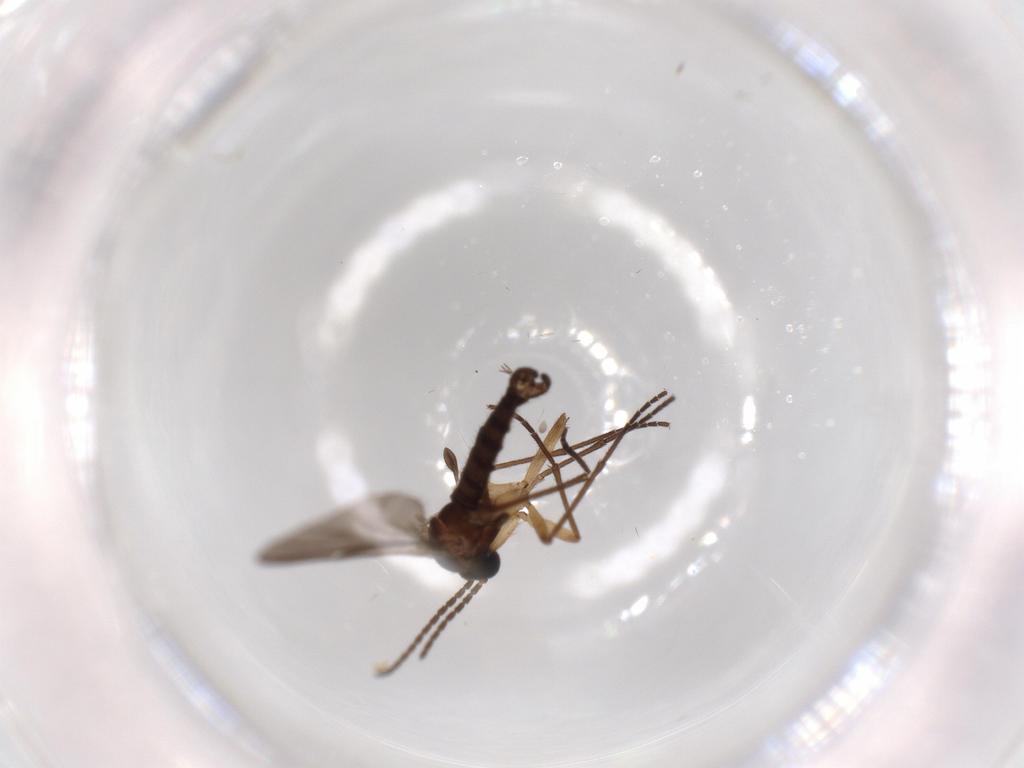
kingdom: Animalia
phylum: Arthropoda
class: Insecta
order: Diptera
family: Sciaridae
